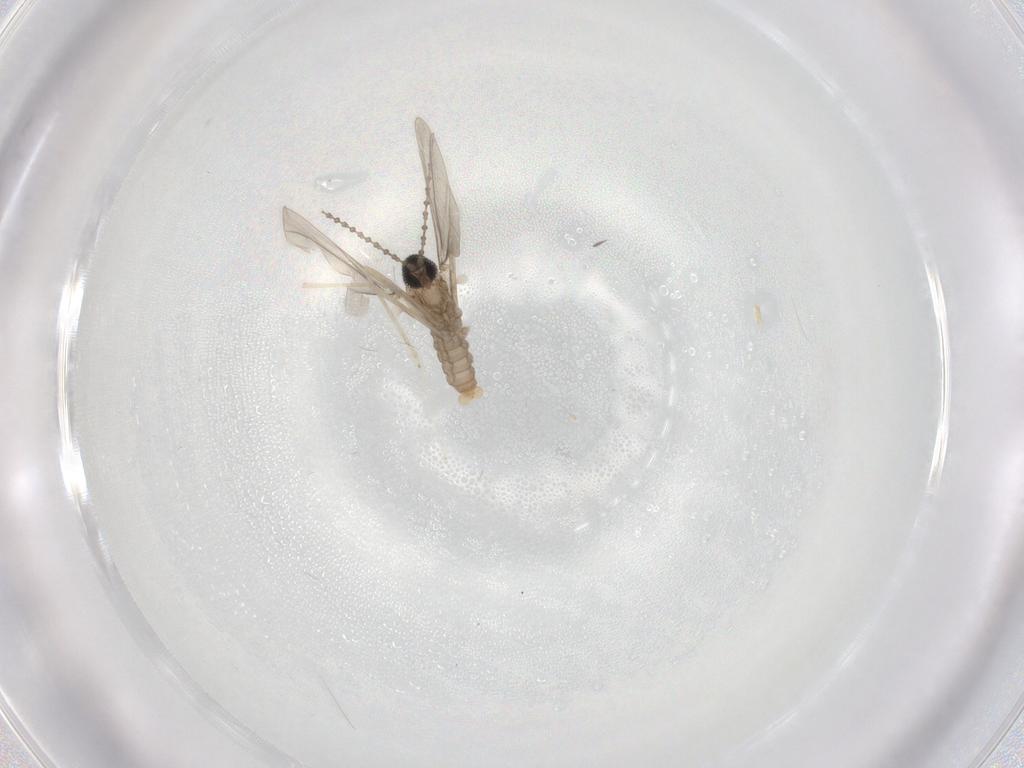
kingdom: Animalia
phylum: Arthropoda
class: Insecta
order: Diptera
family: Cecidomyiidae
